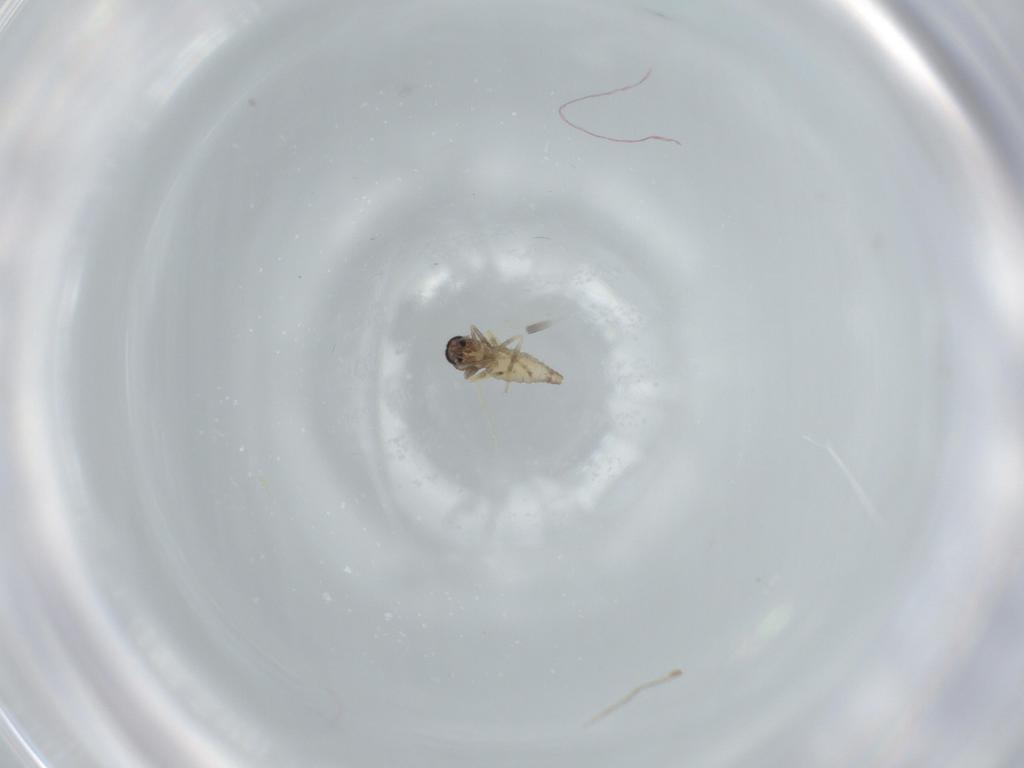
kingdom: Animalia
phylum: Arthropoda
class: Insecta
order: Diptera
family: Ceratopogonidae
